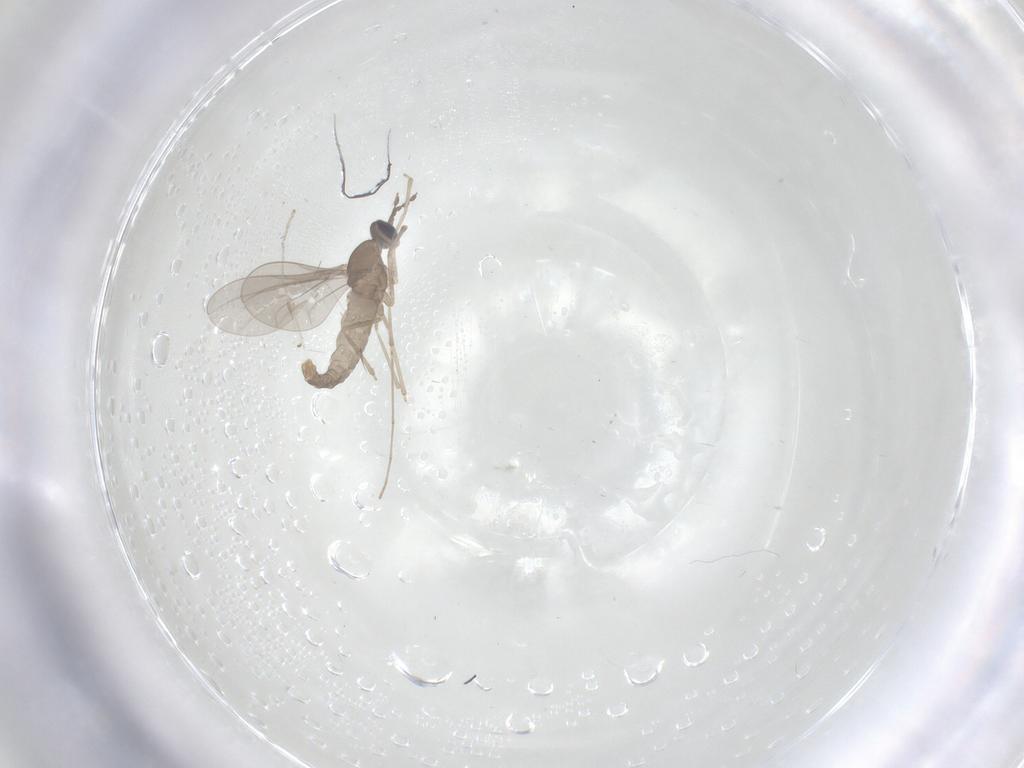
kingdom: Animalia
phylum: Arthropoda
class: Insecta
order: Diptera
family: Cecidomyiidae
